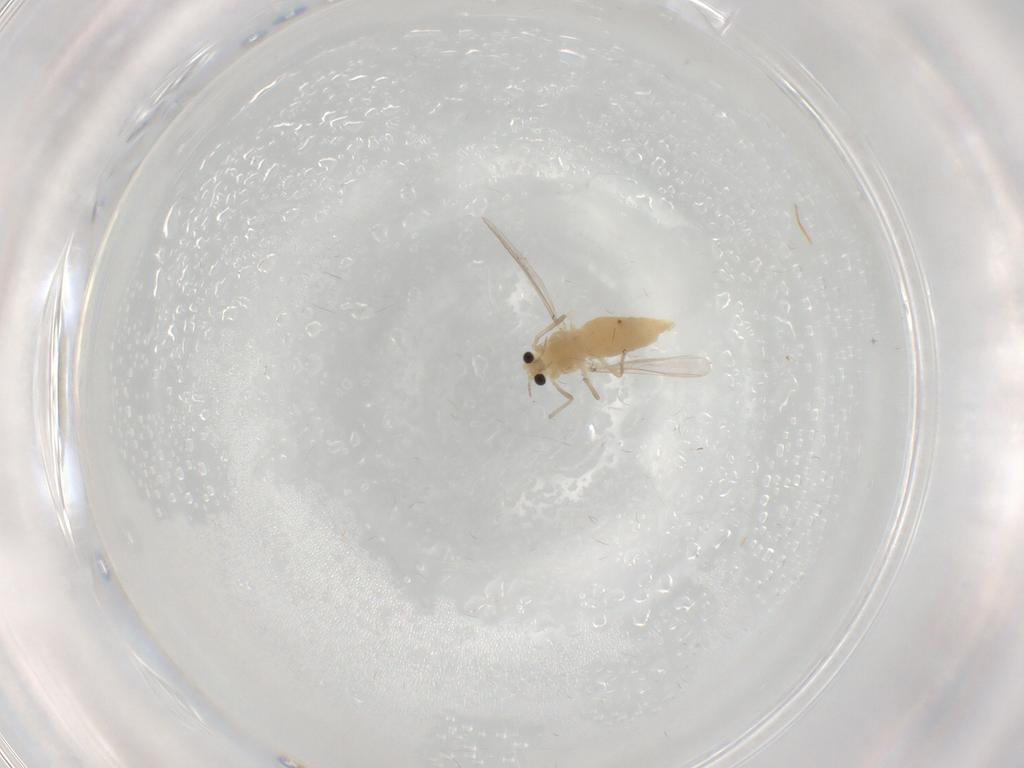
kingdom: Animalia
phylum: Arthropoda
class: Insecta
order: Diptera
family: Chironomidae
